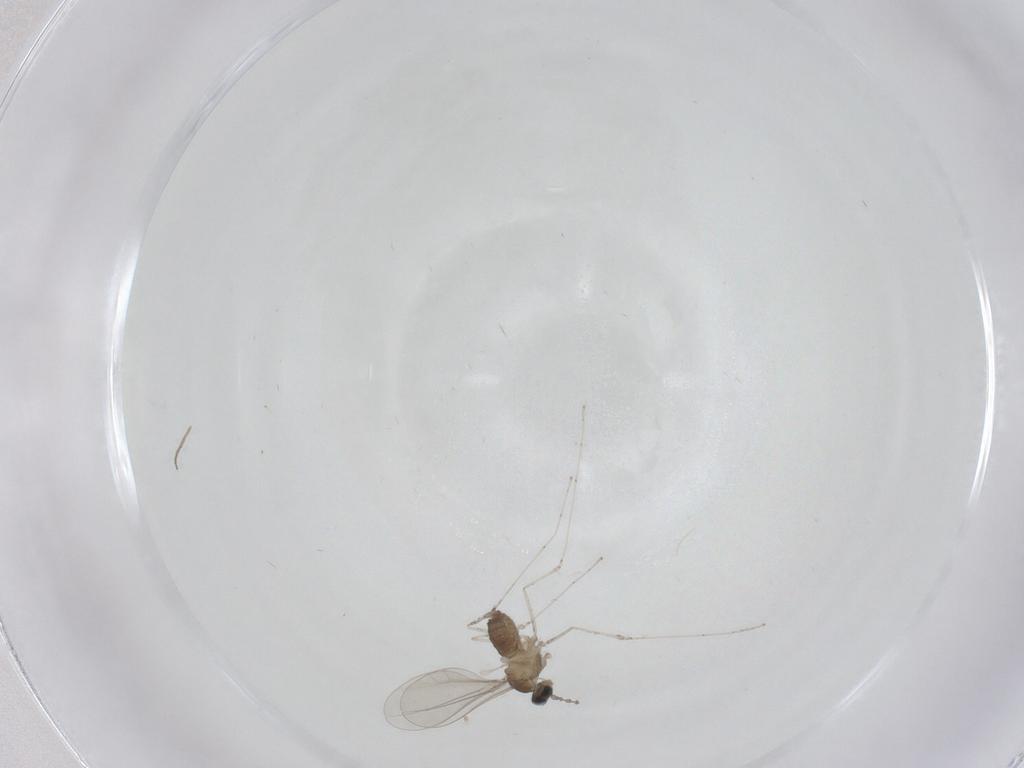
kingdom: Animalia
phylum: Arthropoda
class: Insecta
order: Diptera
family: Cecidomyiidae
